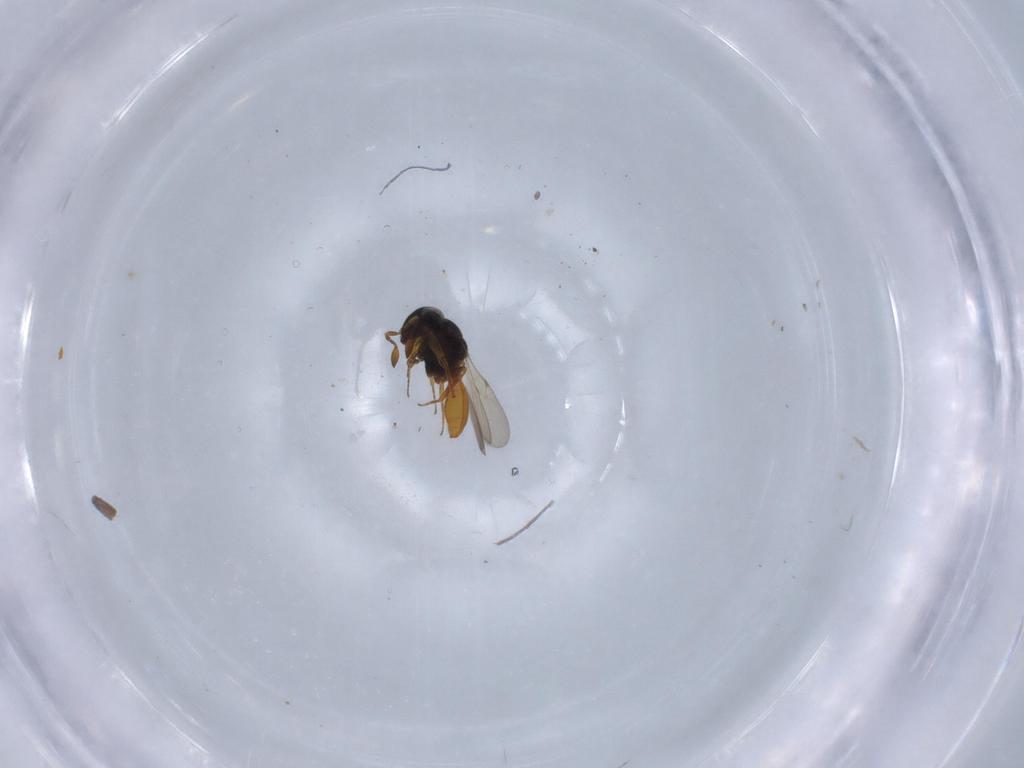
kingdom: Animalia
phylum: Arthropoda
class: Insecta
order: Hymenoptera
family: Scelionidae
